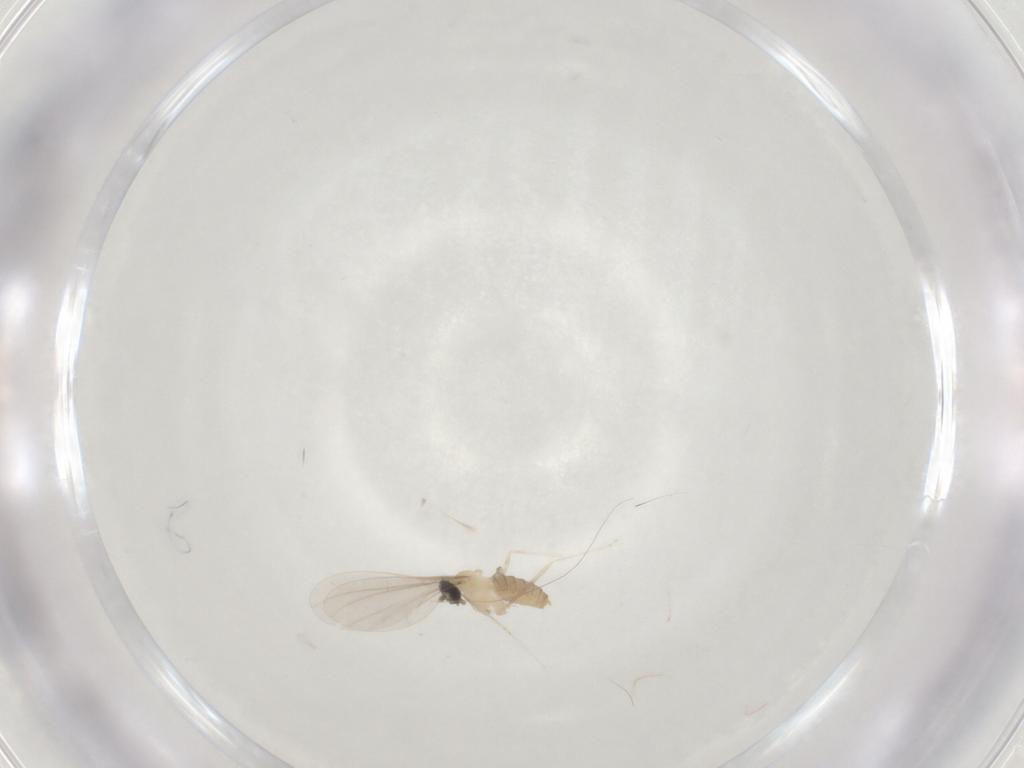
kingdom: Animalia
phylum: Arthropoda
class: Insecta
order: Diptera
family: Cecidomyiidae
